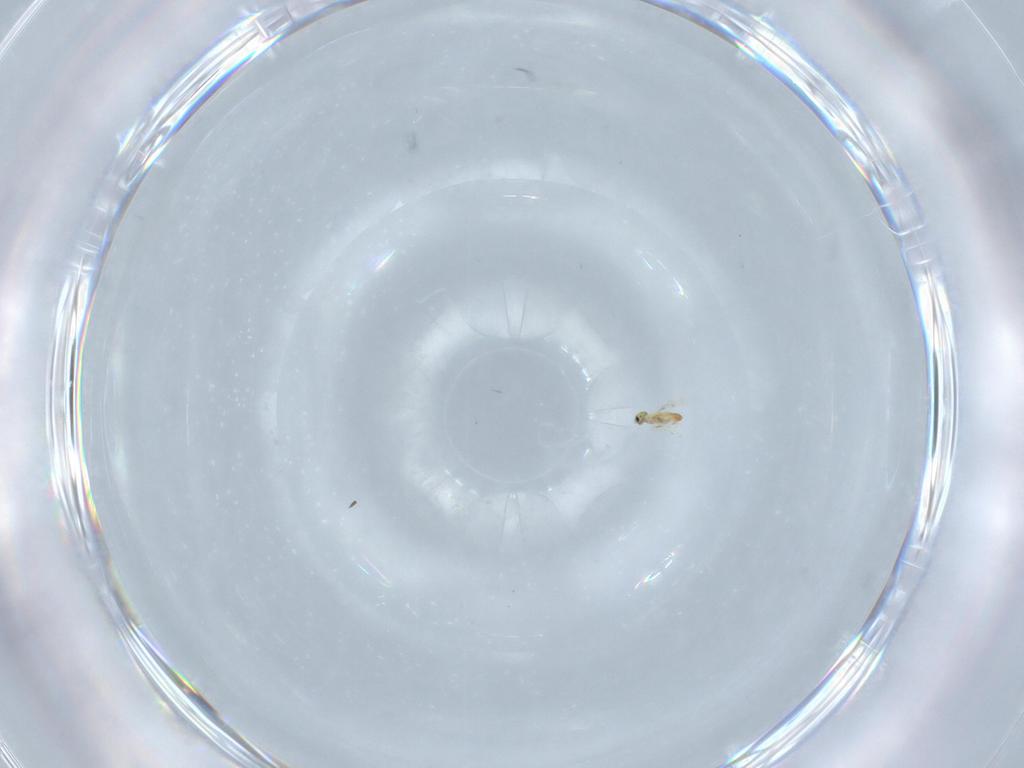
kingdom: Animalia
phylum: Arthropoda
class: Insecta
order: Hymenoptera
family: Trichogrammatidae
